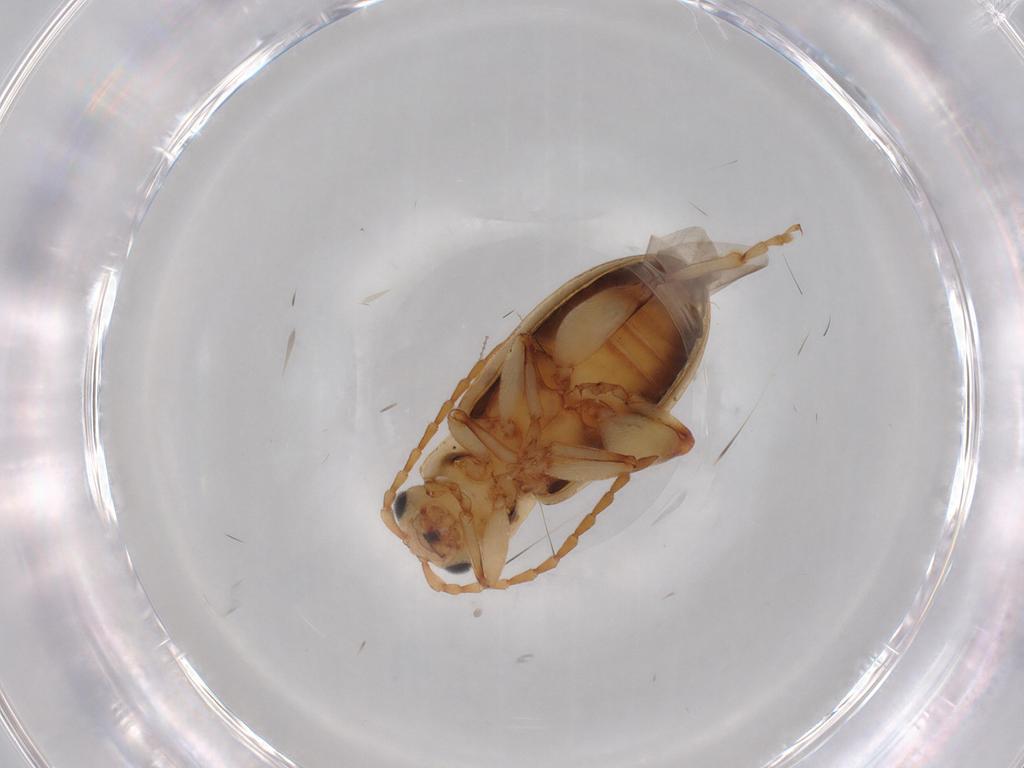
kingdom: Animalia
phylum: Arthropoda
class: Insecta
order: Coleoptera
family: Chrysomelidae
